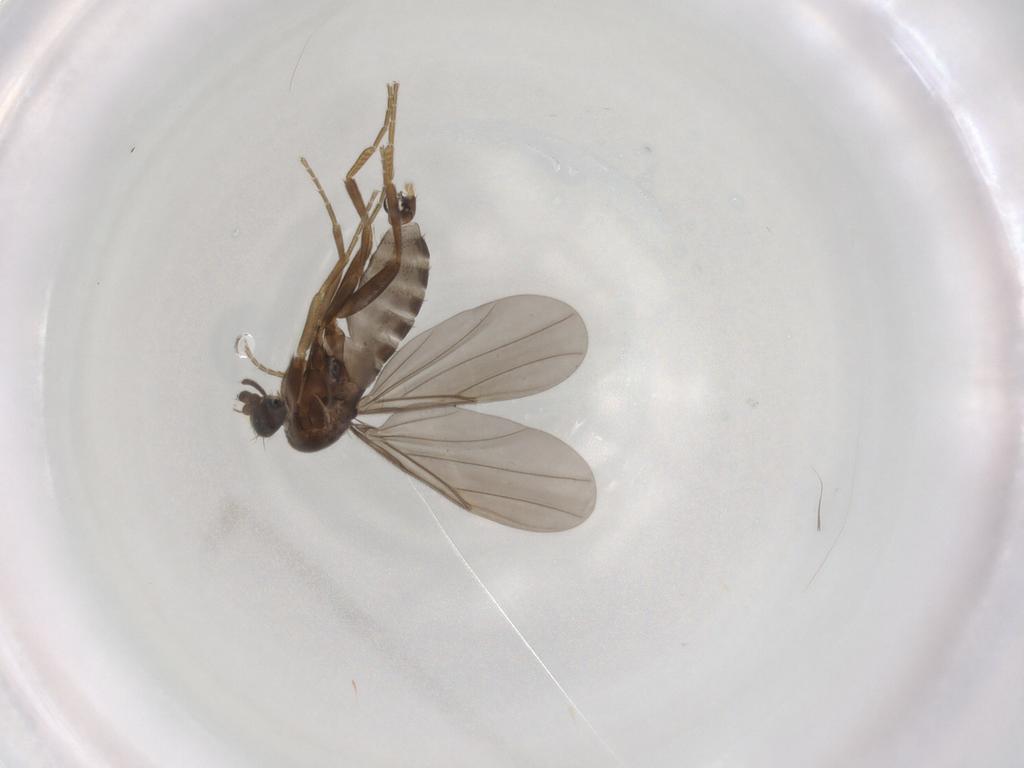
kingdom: Animalia
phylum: Arthropoda
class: Insecta
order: Diptera
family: Phoridae
